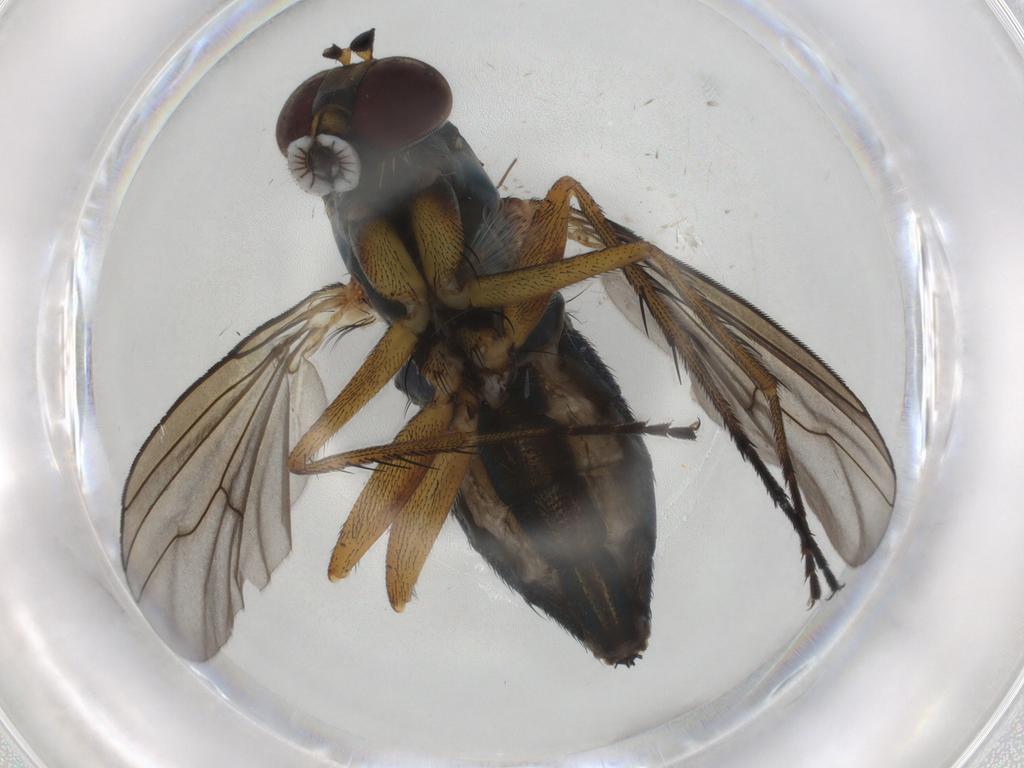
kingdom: Animalia
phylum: Arthropoda
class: Insecta
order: Diptera
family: Dolichopodidae
